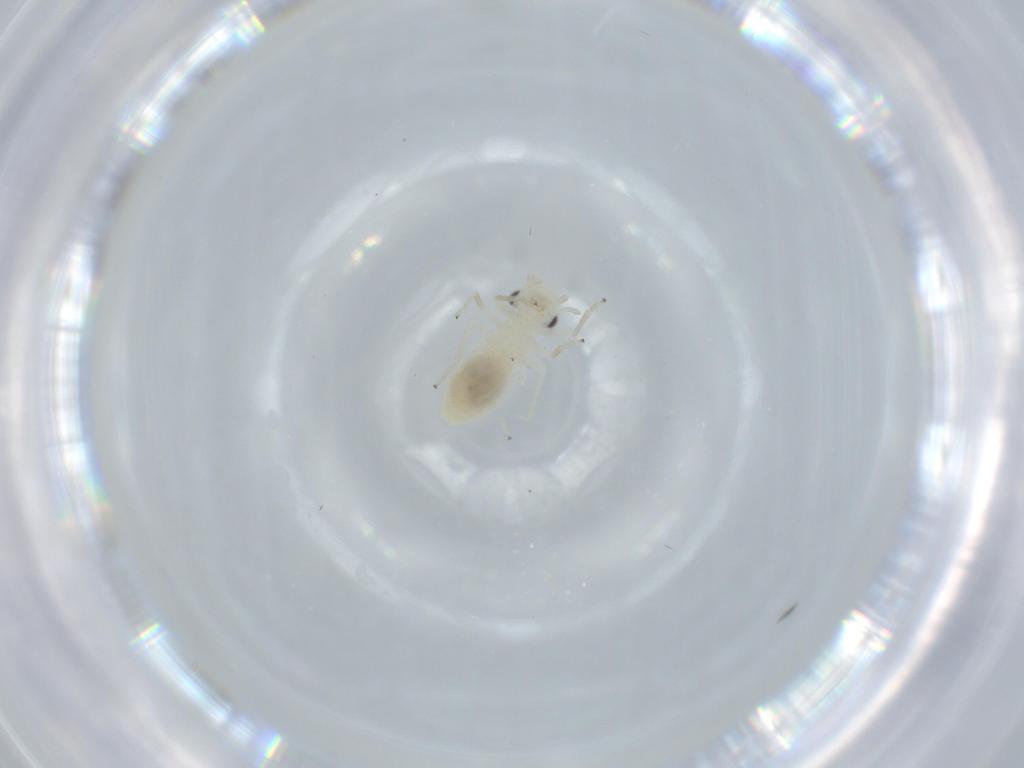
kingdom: Animalia
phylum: Arthropoda
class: Insecta
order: Psocodea
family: Caeciliusidae
